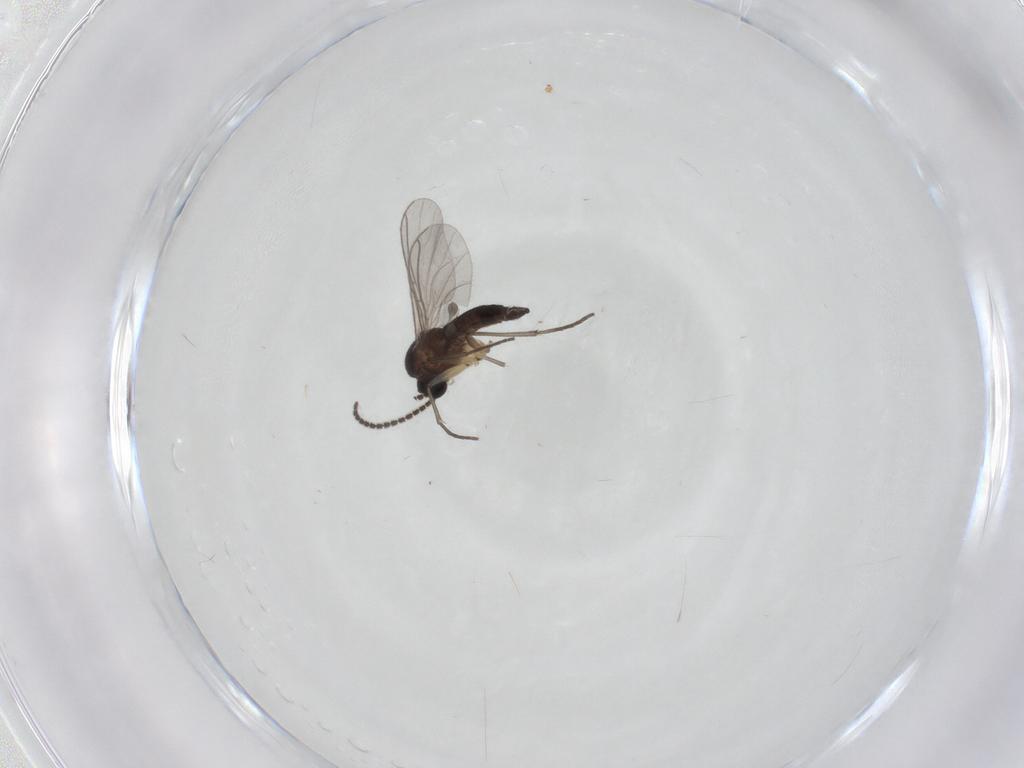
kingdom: Animalia
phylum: Arthropoda
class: Insecta
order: Diptera
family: Sciaridae
